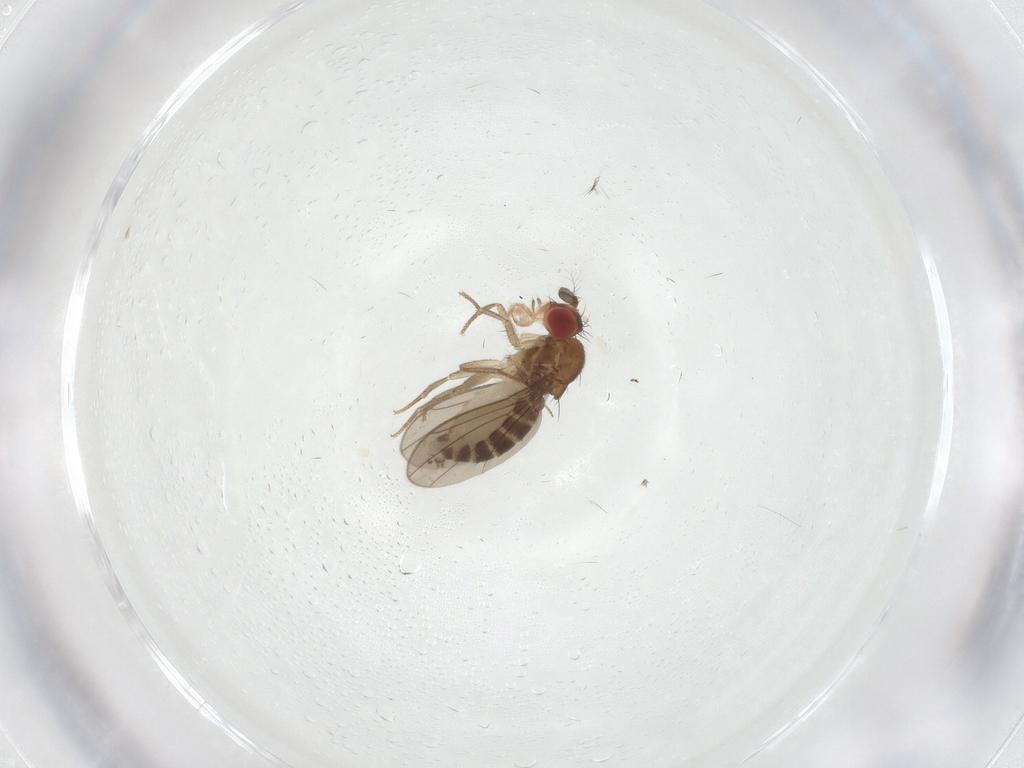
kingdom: Animalia
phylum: Arthropoda
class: Insecta
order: Diptera
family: Drosophilidae
